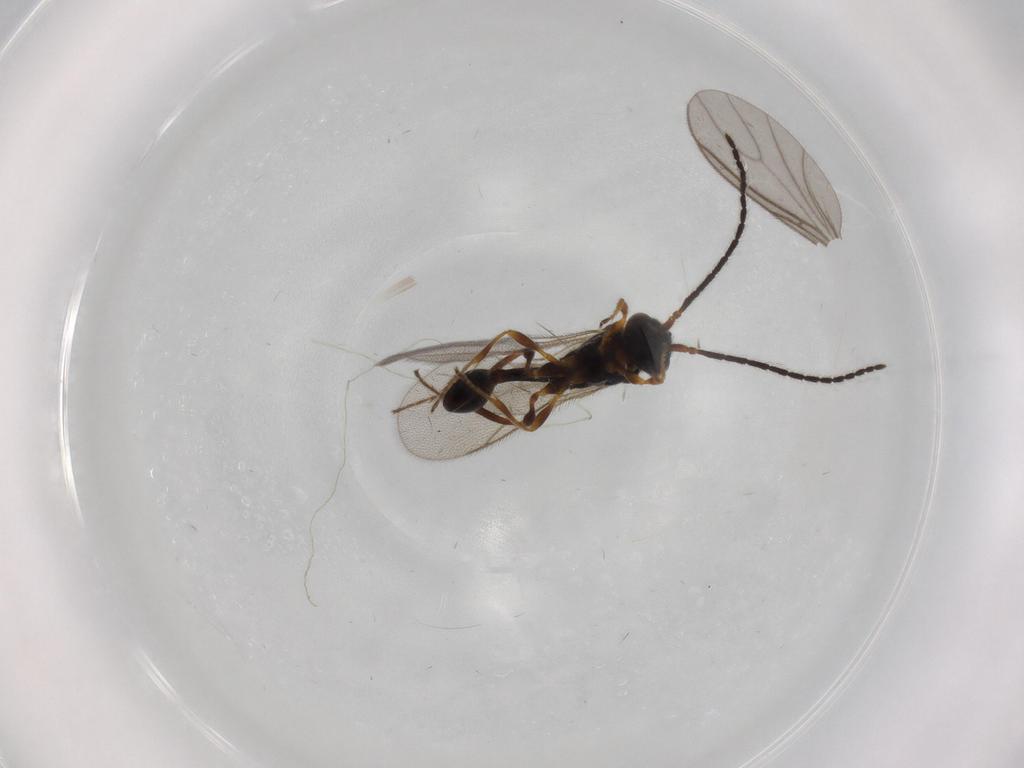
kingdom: Animalia
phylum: Arthropoda
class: Insecta
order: Hymenoptera
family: Diapriidae
